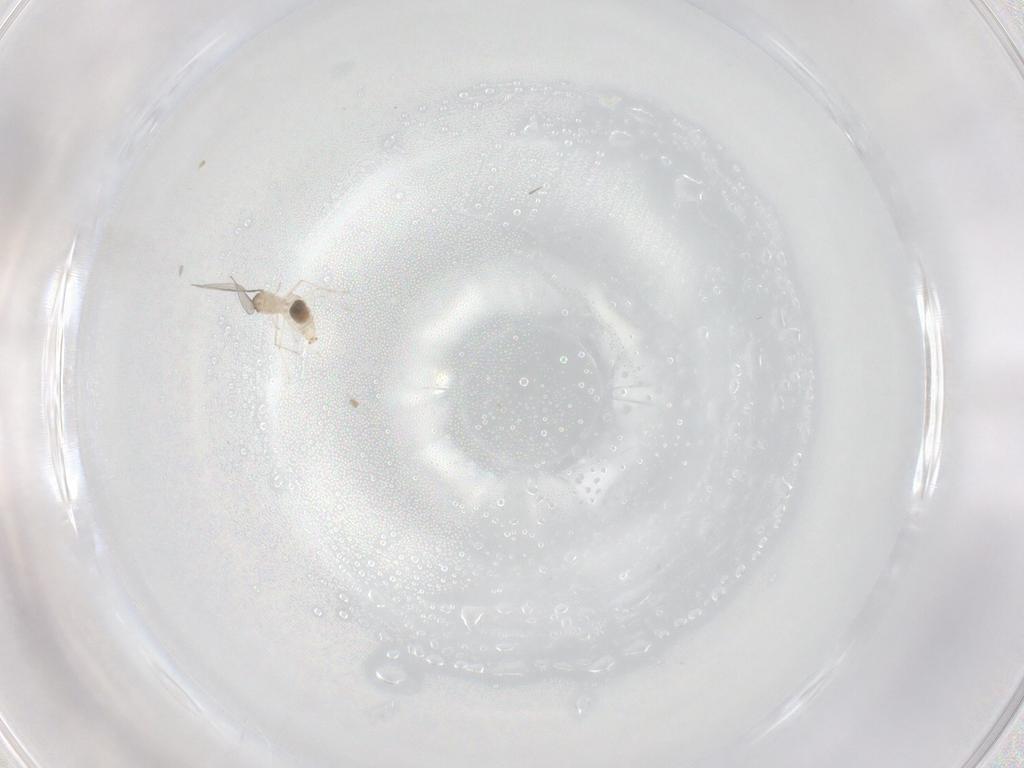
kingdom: Animalia
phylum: Arthropoda
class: Insecta
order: Diptera
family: Cecidomyiidae
